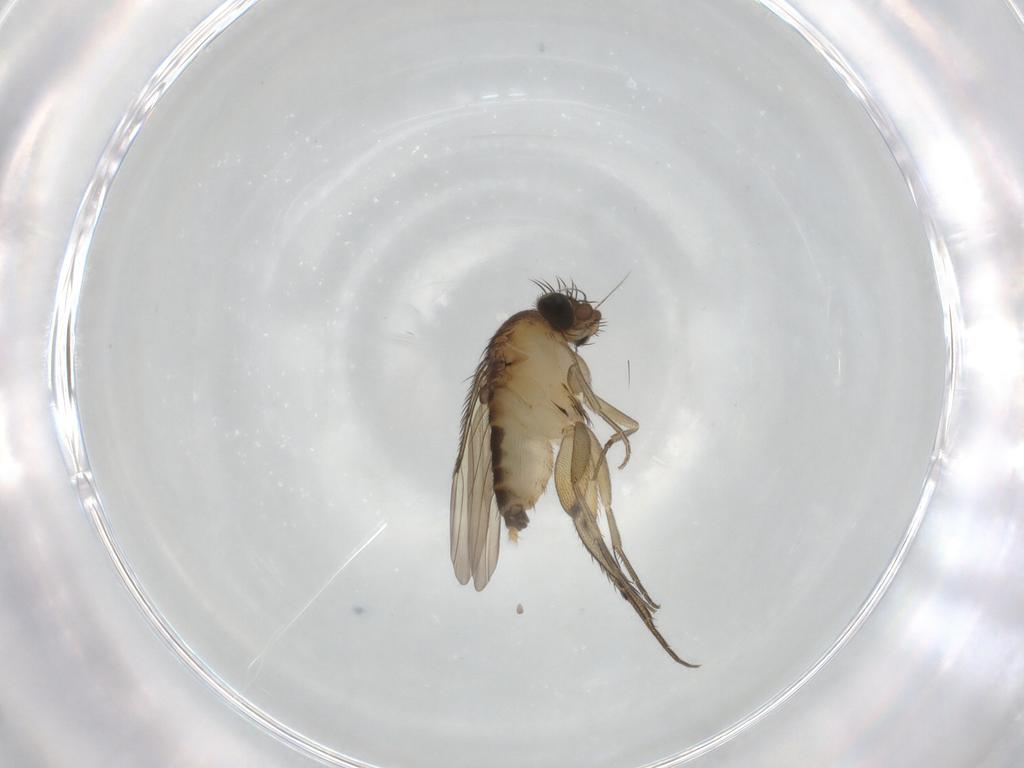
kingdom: Animalia
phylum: Arthropoda
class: Insecta
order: Diptera
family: Phoridae
